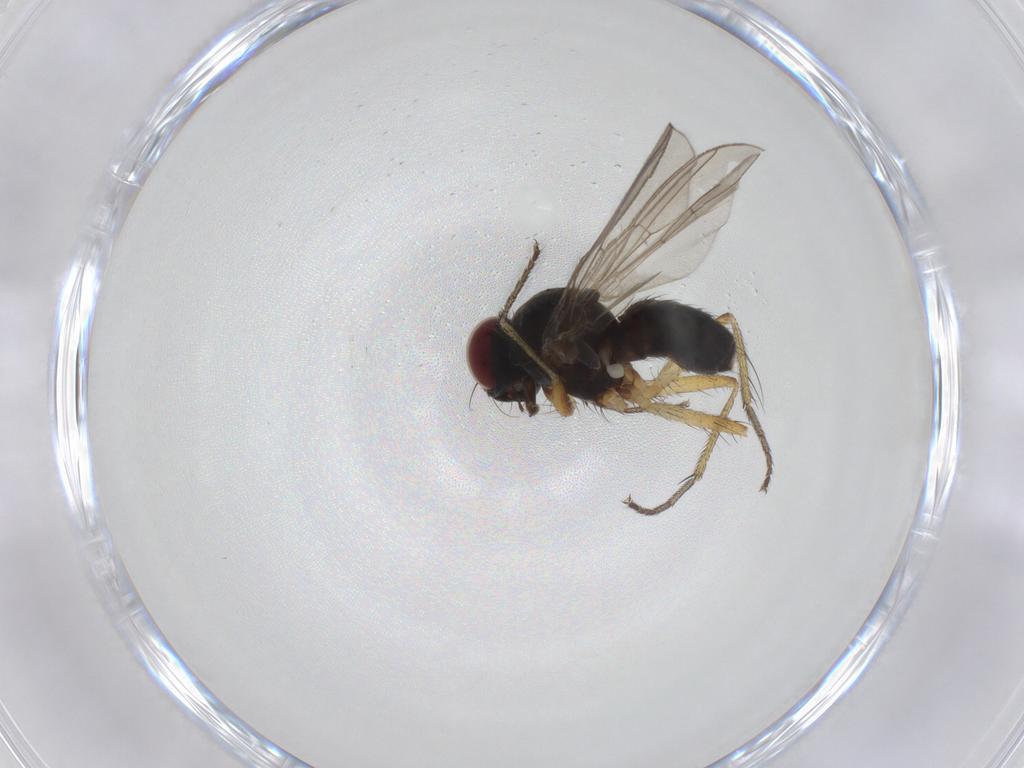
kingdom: Animalia
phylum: Arthropoda
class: Insecta
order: Diptera
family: Muscidae
